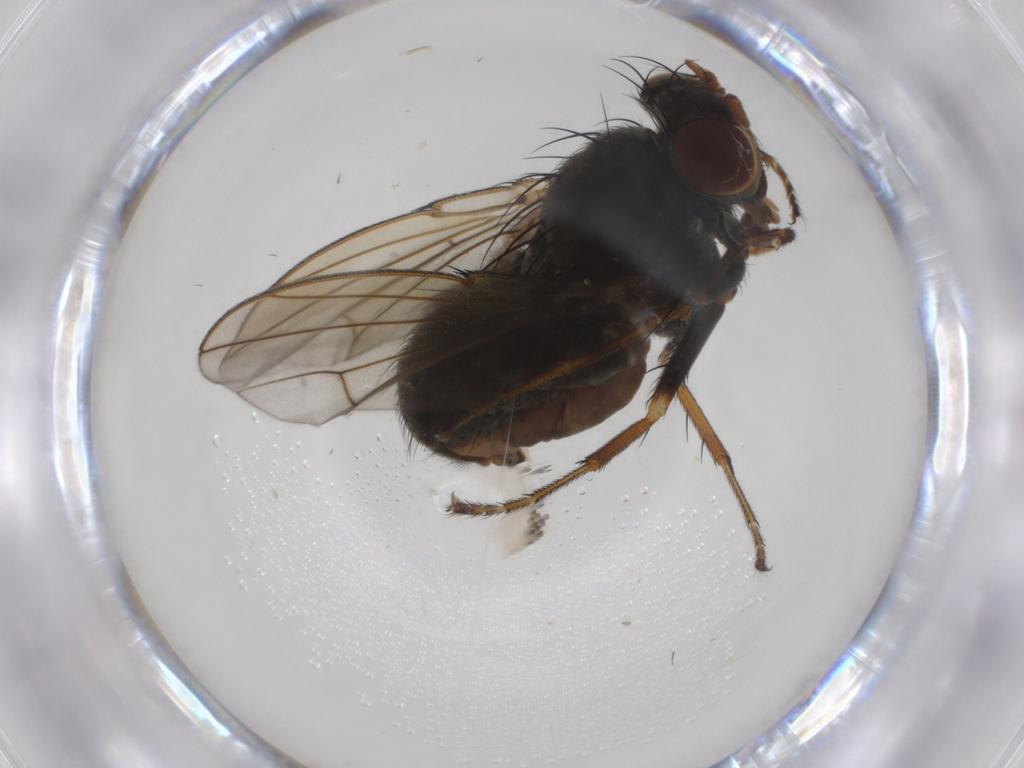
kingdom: Animalia
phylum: Arthropoda
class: Insecta
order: Diptera
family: Ephydridae
